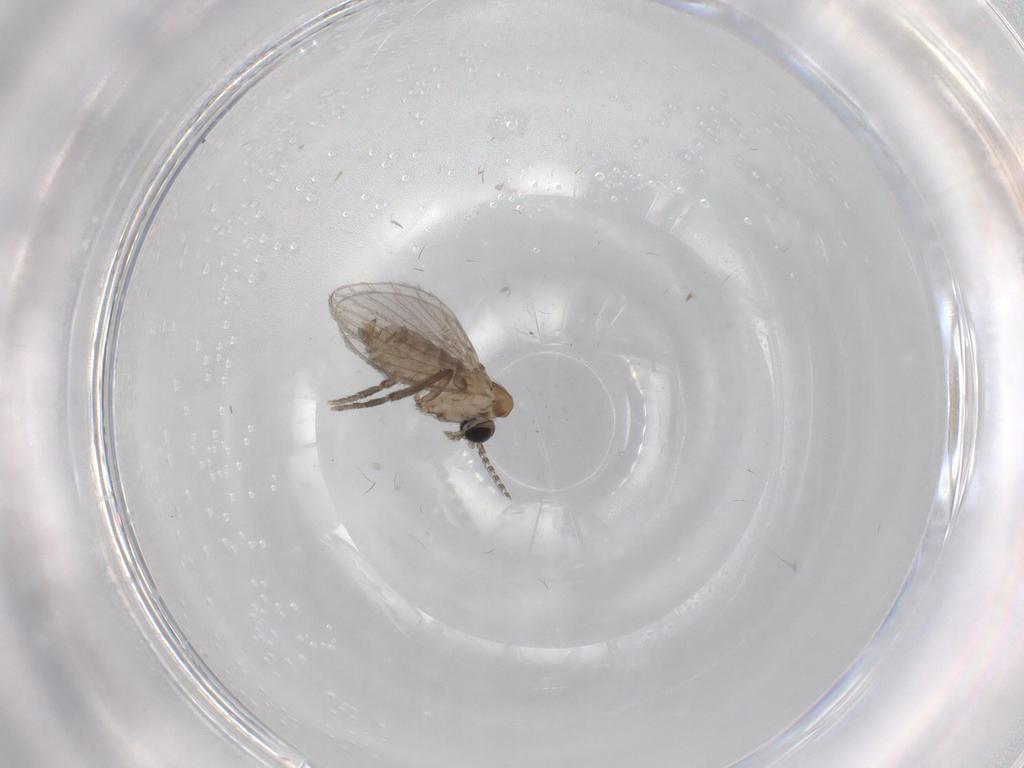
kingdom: Animalia
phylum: Arthropoda
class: Insecta
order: Diptera
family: Psychodidae
